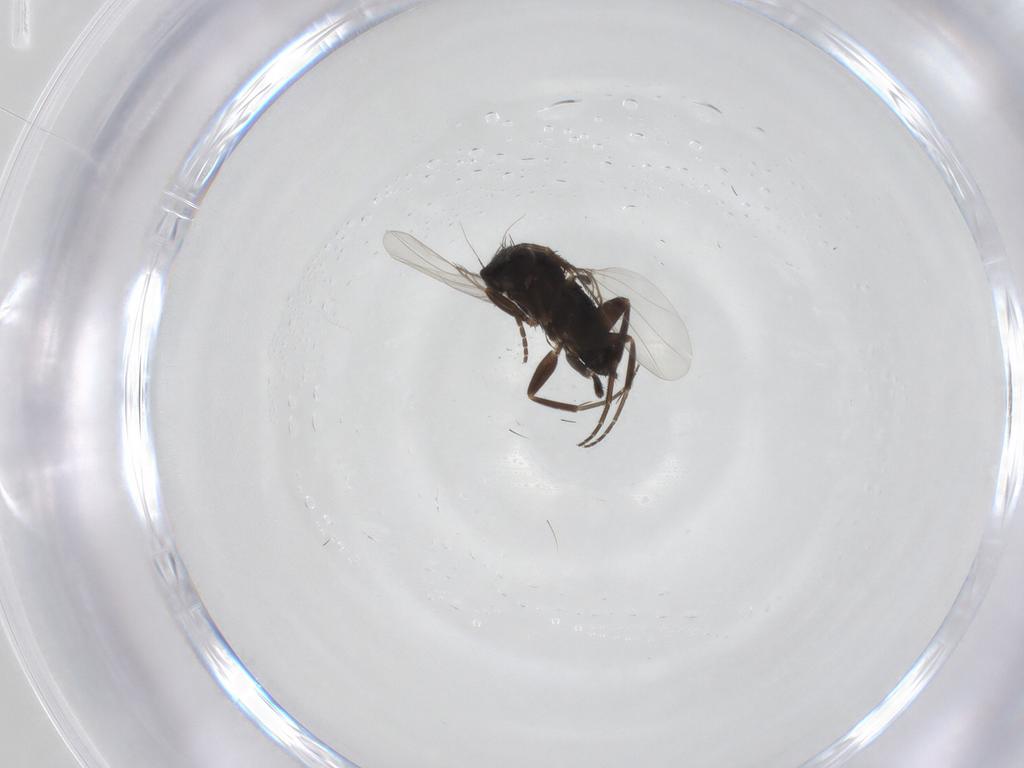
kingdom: Animalia
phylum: Arthropoda
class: Insecta
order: Diptera
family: Phoridae
